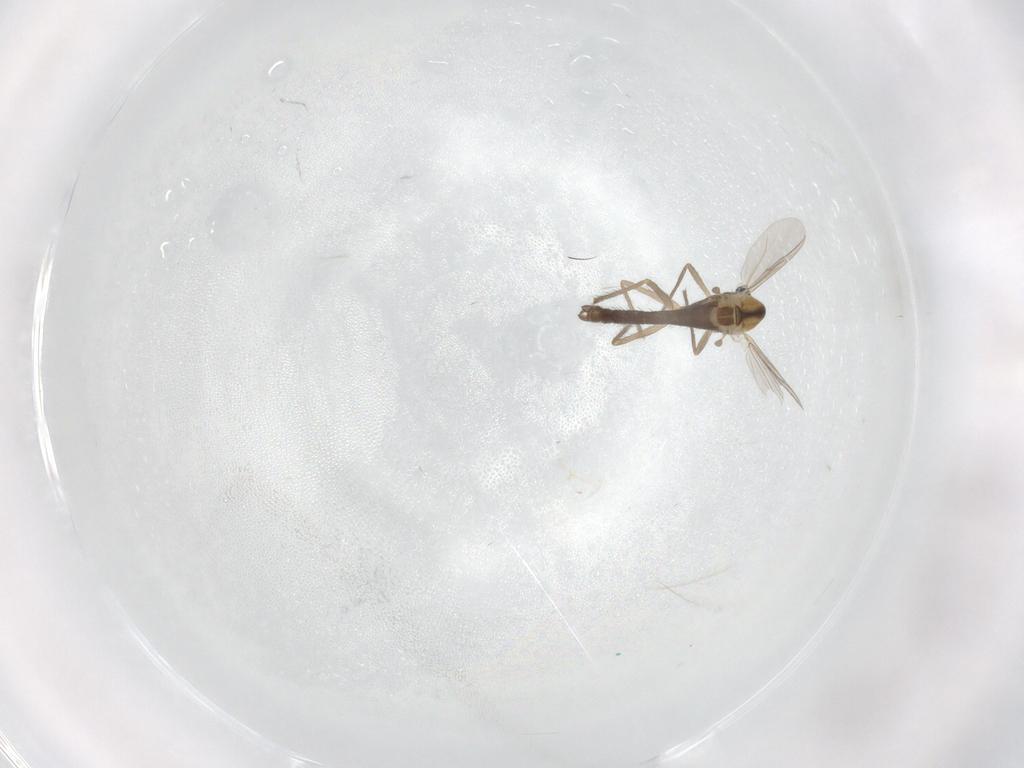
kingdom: Animalia
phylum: Arthropoda
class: Insecta
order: Diptera
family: Chironomidae
